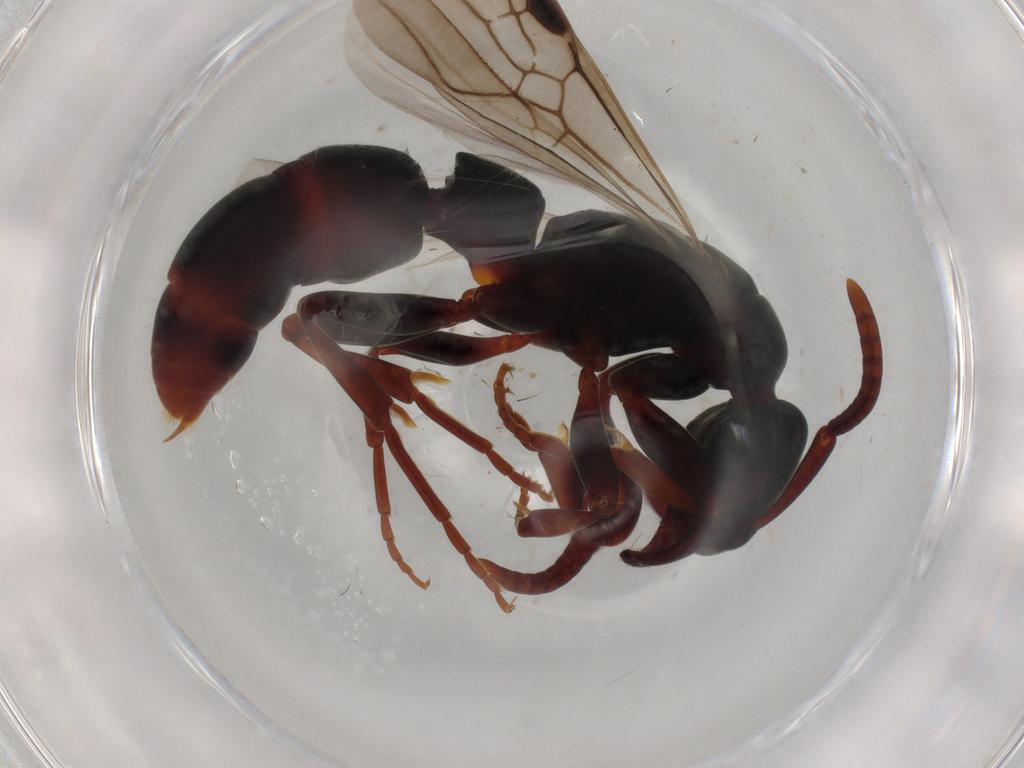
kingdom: Animalia
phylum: Arthropoda
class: Insecta
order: Hymenoptera
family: Formicidae
